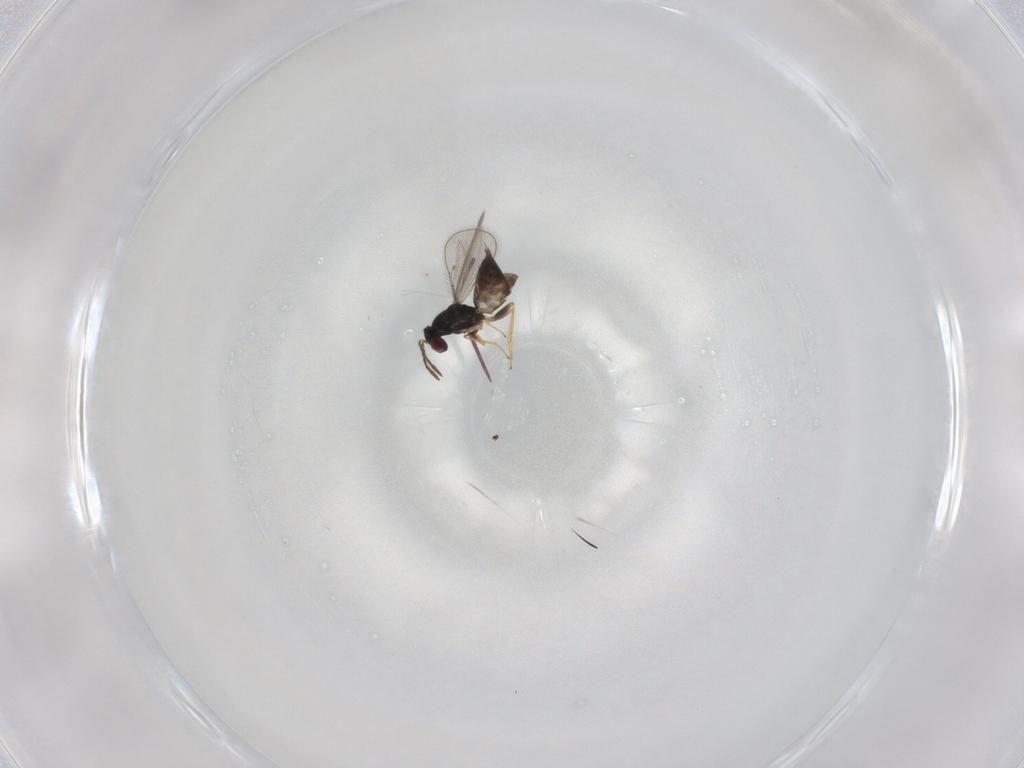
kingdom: Animalia
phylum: Arthropoda
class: Insecta
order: Hymenoptera
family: Eulophidae
